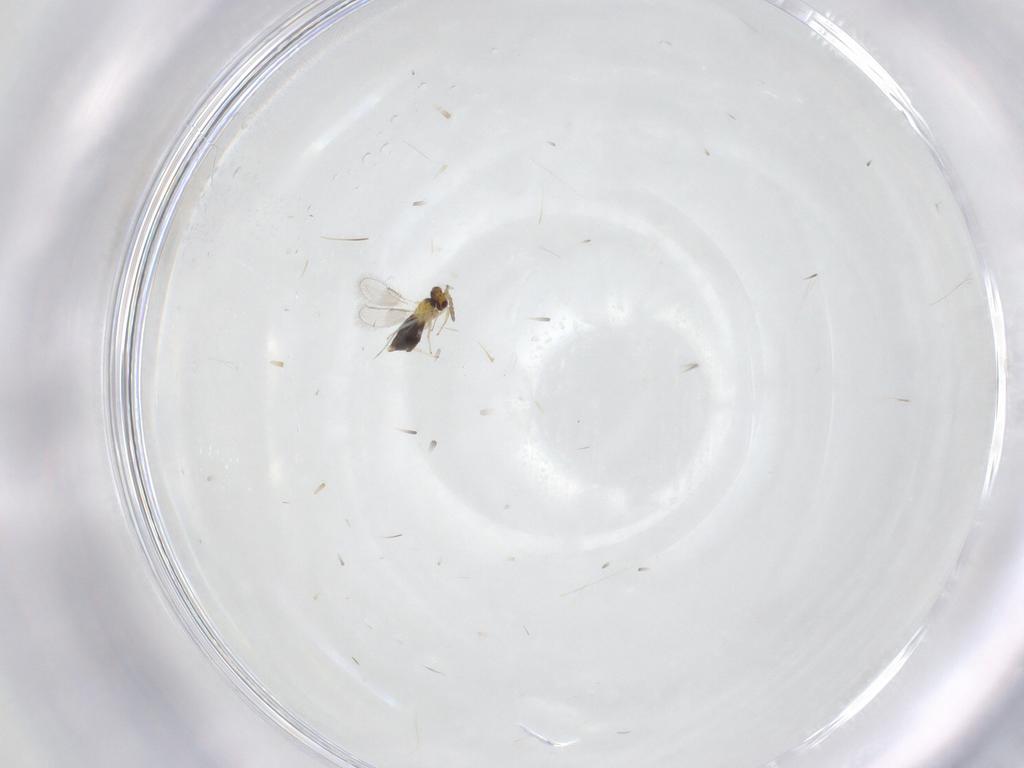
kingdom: Animalia
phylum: Arthropoda
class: Insecta
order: Hymenoptera
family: Aphelinidae
